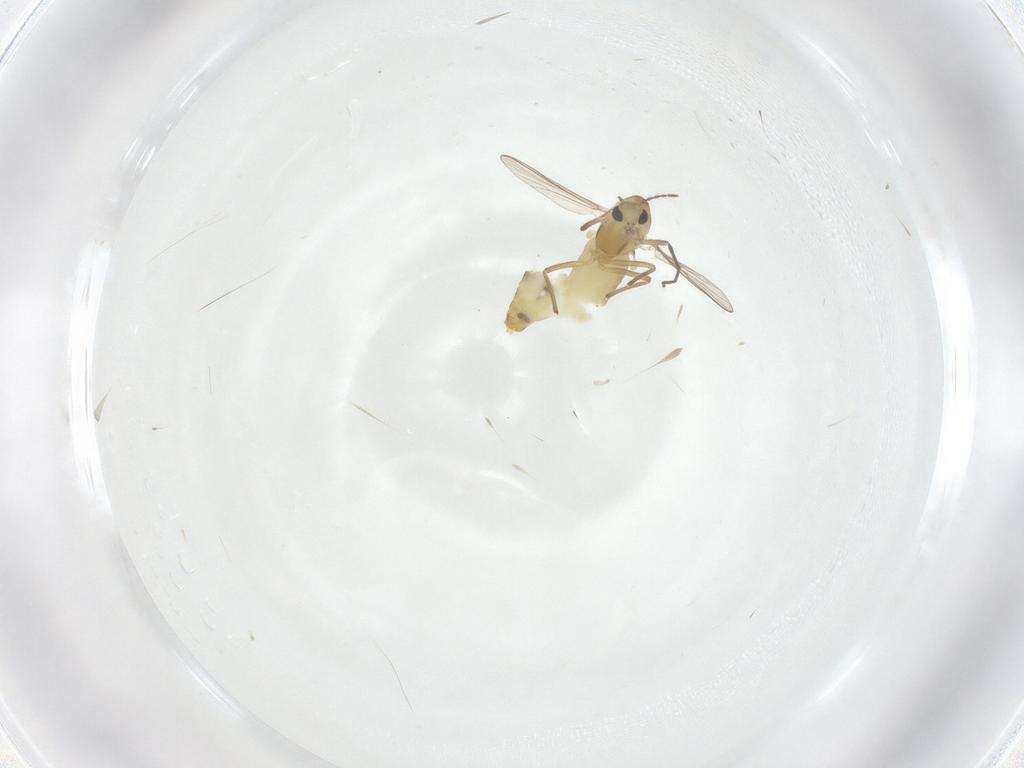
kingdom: Animalia
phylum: Arthropoda
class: Insecta
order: Diptera
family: Chironomidae
